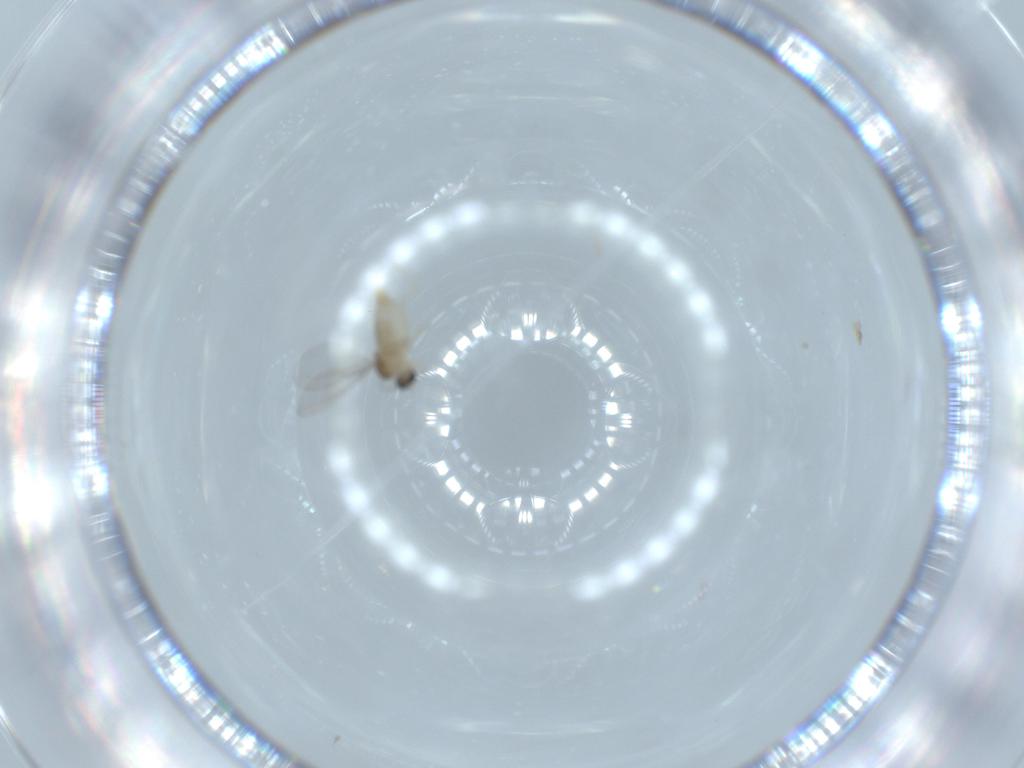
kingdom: Animalia
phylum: Arthropoda
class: Insecta
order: Diptera
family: Cecidomyiidae
